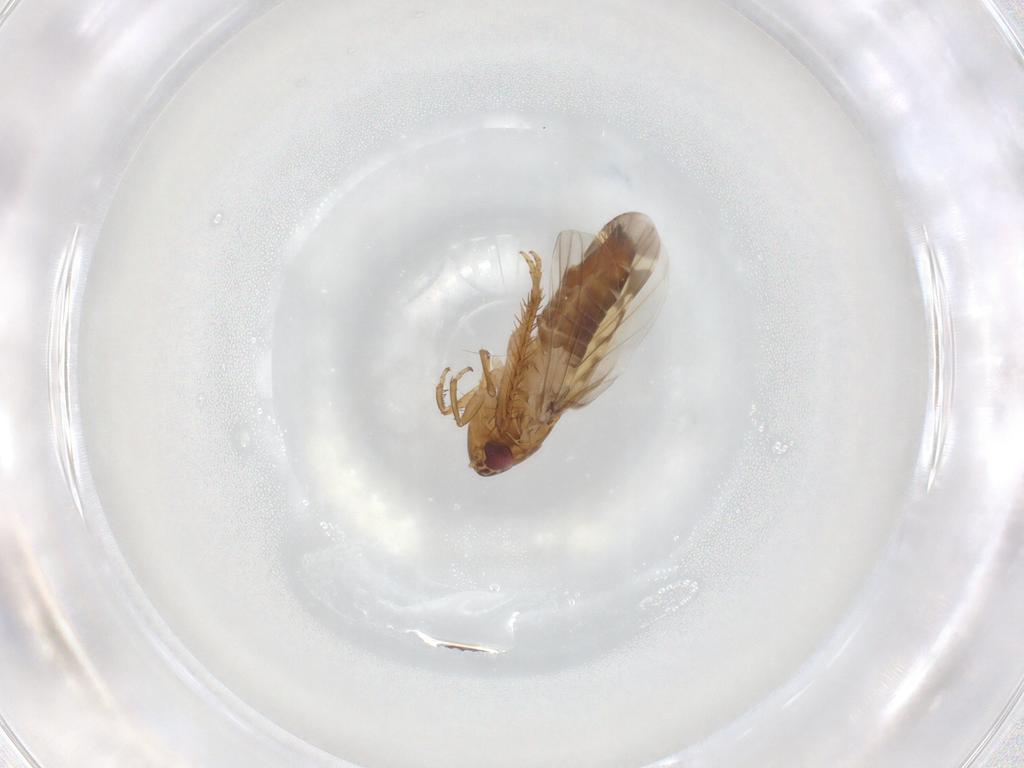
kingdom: Animalia
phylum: Arthropoda
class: Insecta
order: Hemiptera
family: Cicadellidae
